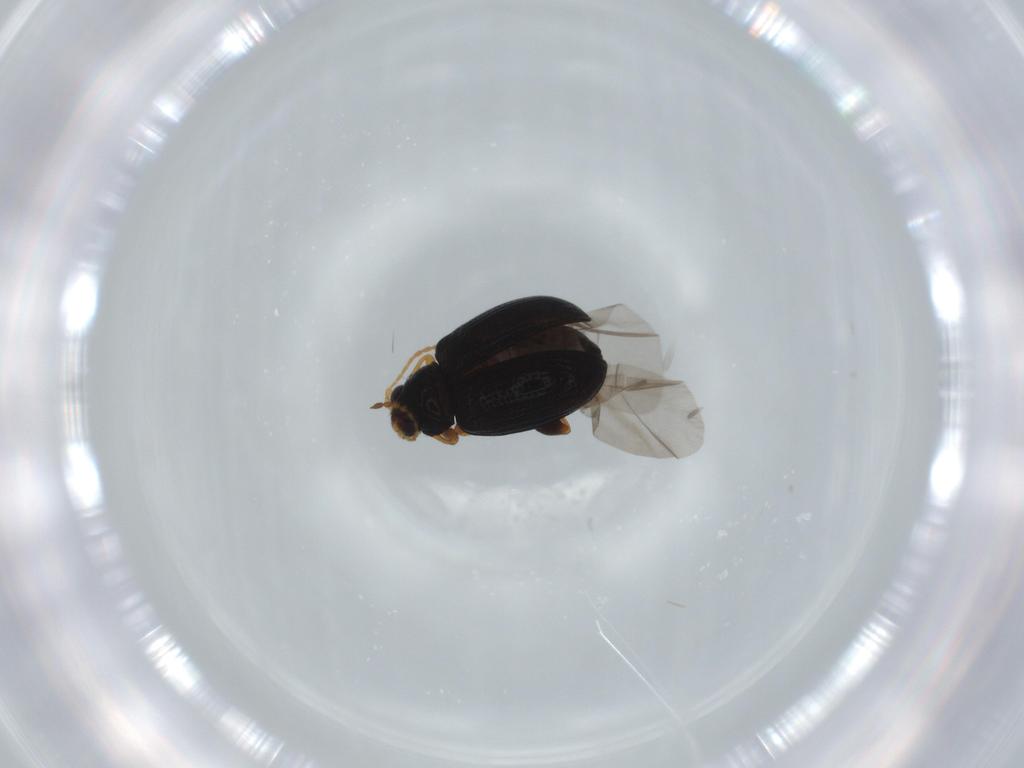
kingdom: Animalia
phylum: Arthropoda
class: Insecta
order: Coleoptera
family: Chrysomelidae
